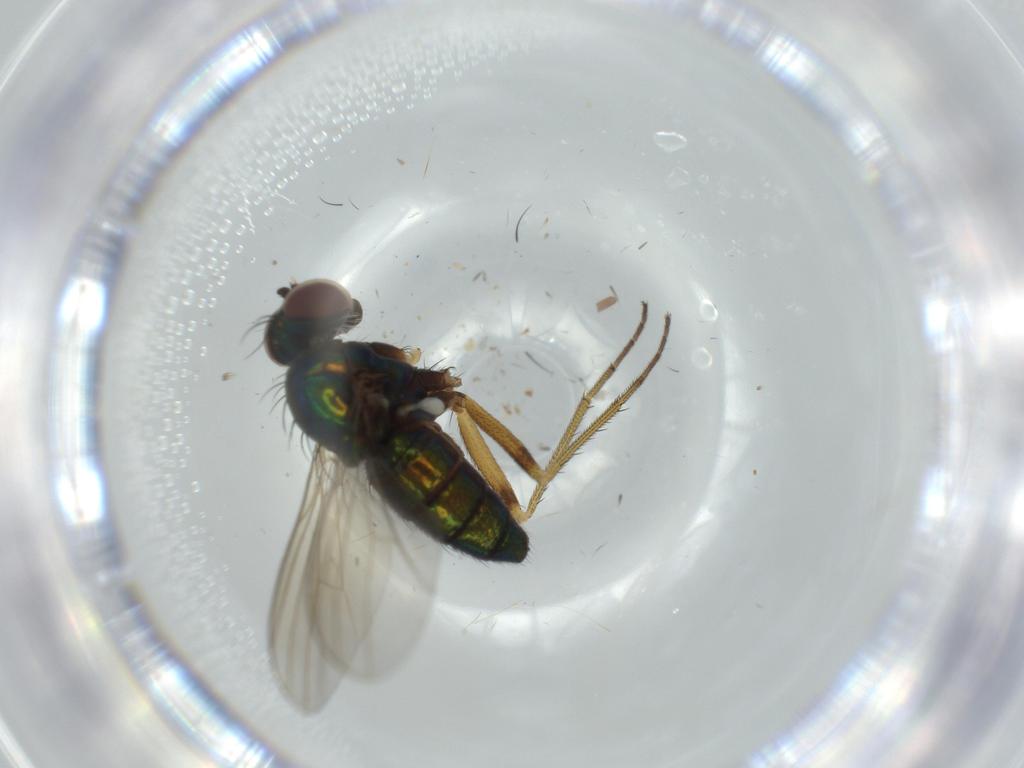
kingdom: Animalia
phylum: Arthropoda
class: Insecta
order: Diptera
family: Dolichopodidae
